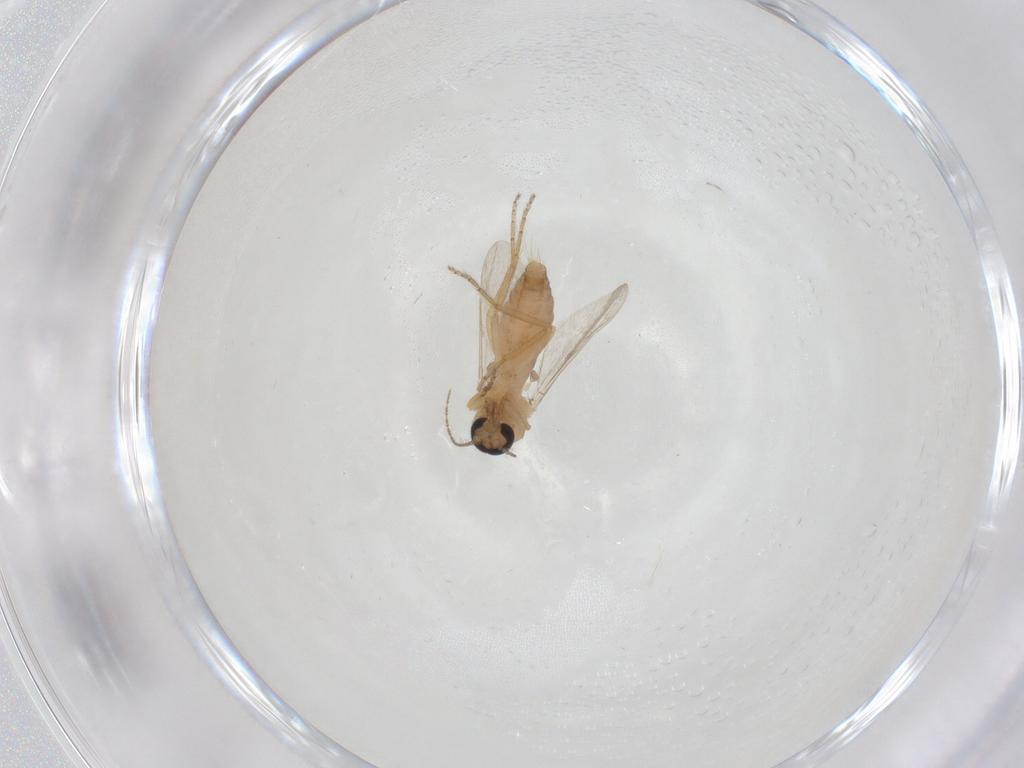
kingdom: Animalia
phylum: Arthropoda
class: Insecta
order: Diptera
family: Ceratopogonidae
